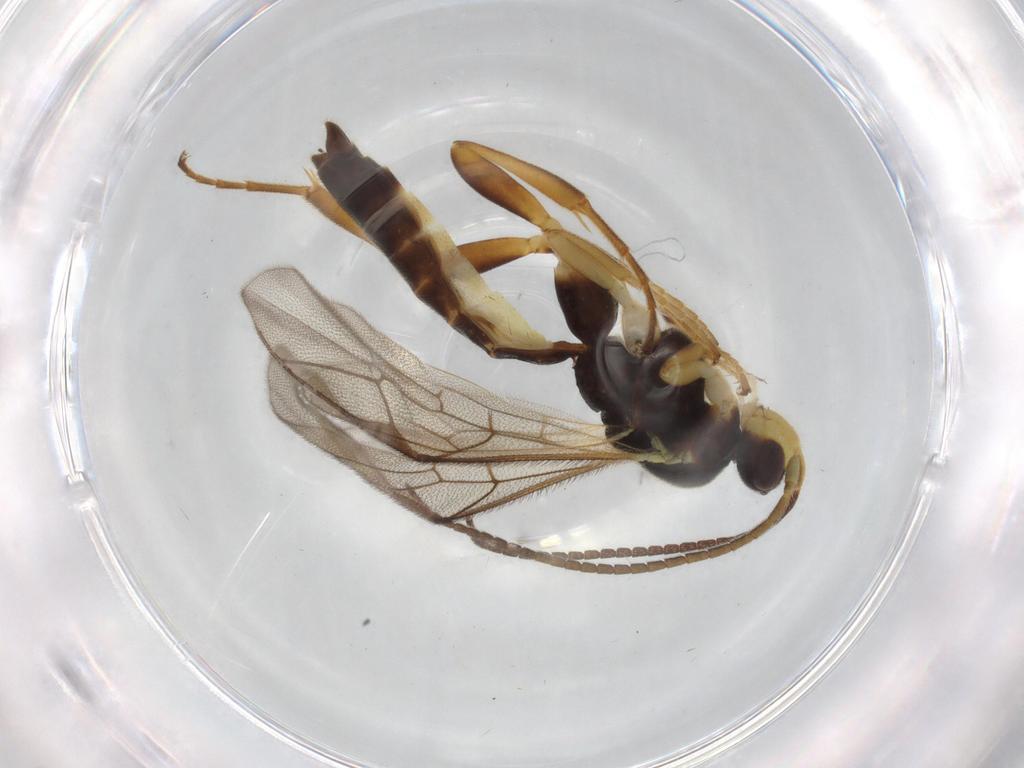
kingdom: Animalia
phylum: Arthropoda
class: Insecta
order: Hymenoptera
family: Ichneumonidae
